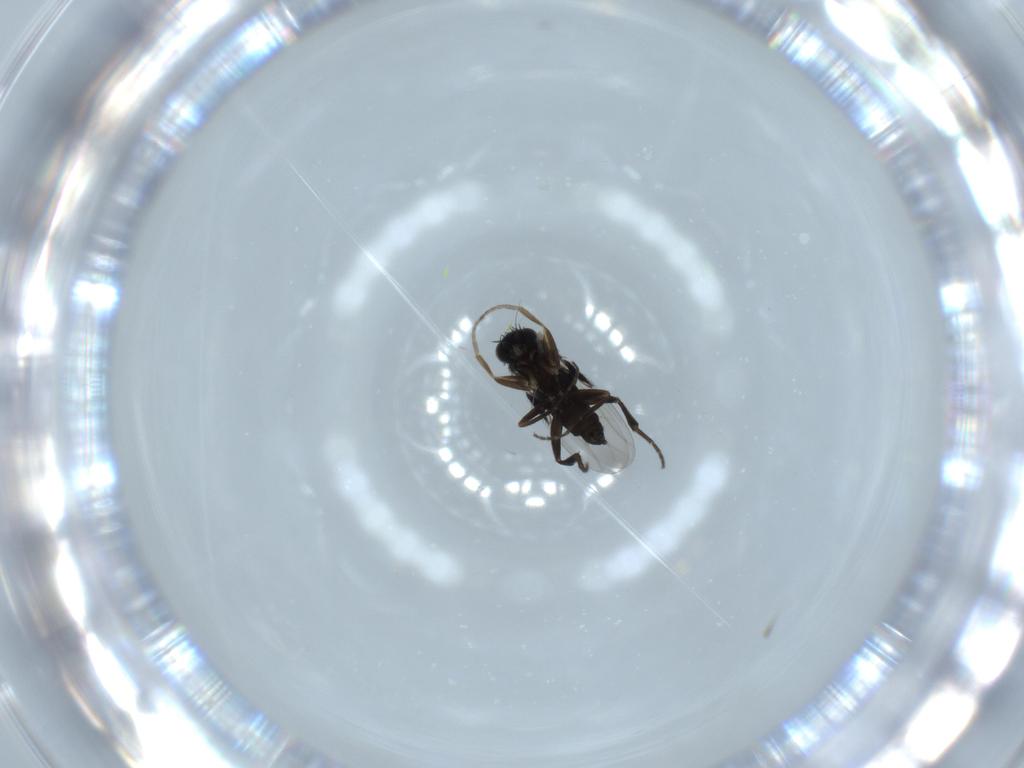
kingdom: Animalia
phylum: Arthropoda
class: Insecta
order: Diptera
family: Phoridae
